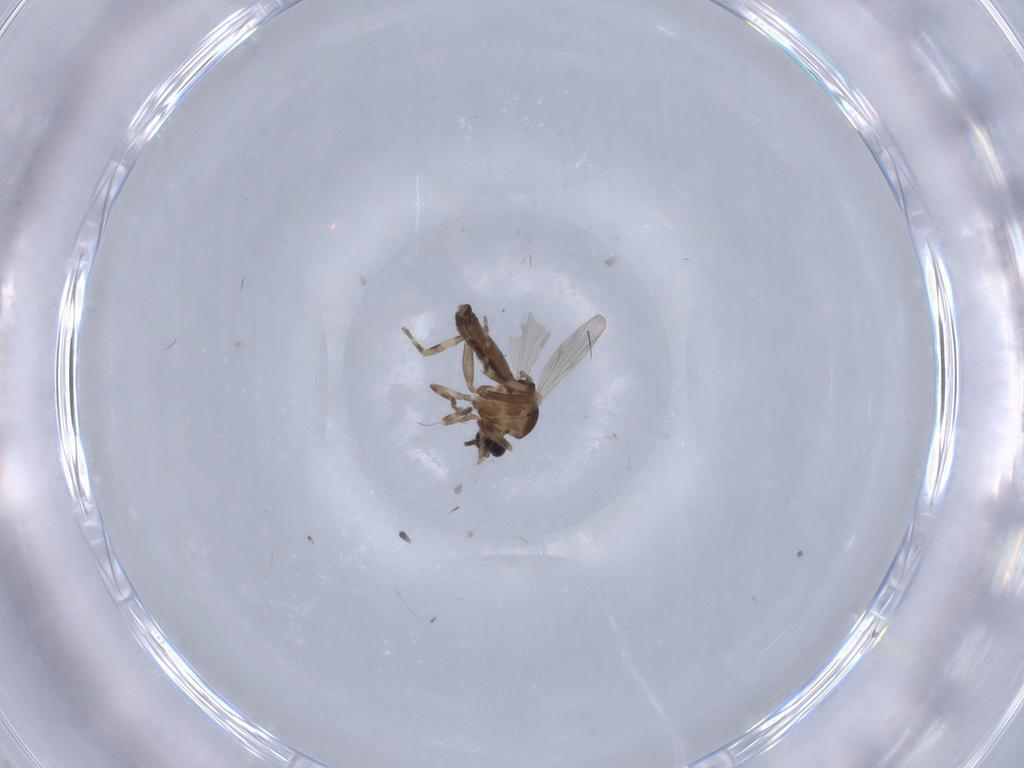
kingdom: Animalia
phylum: Arthropoda
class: Insecta
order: Diptera
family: Ceratopogonidae
